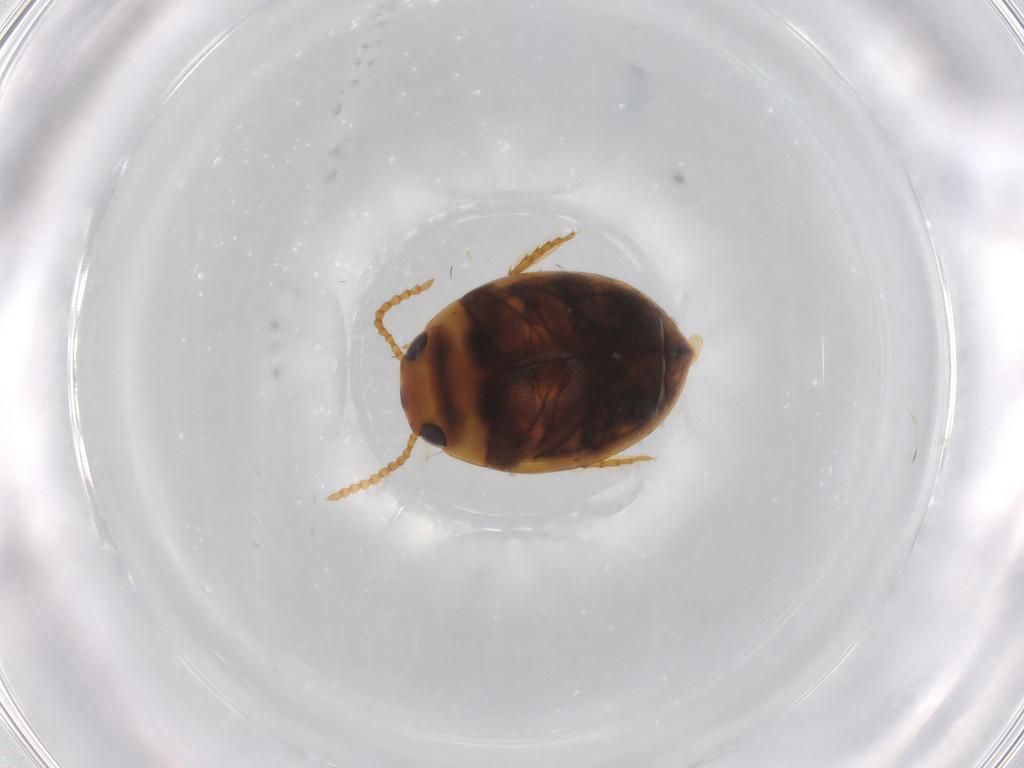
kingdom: Animalia
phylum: Arthropoda
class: Insecta
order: Coleoptera
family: Dytiscidae
